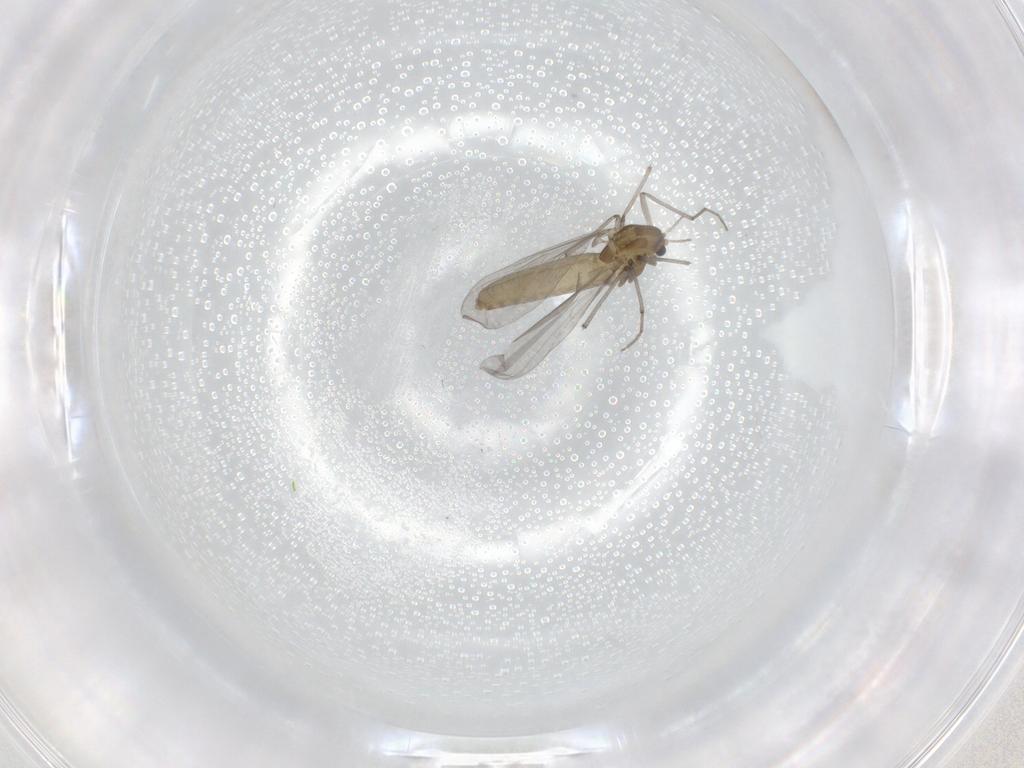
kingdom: Animalia
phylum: Arthropoda
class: Insecta
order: Diptera
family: Chironomidae
